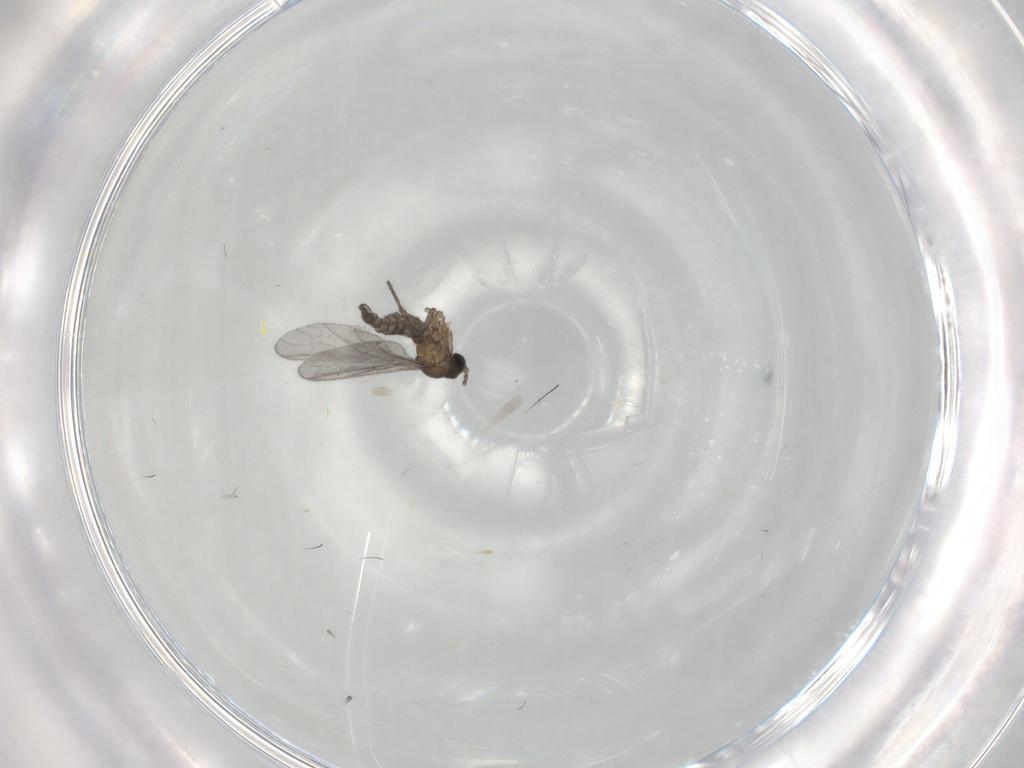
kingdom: Animalia
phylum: Arthropoda
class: Insecta
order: Diptera
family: Sciaridae
